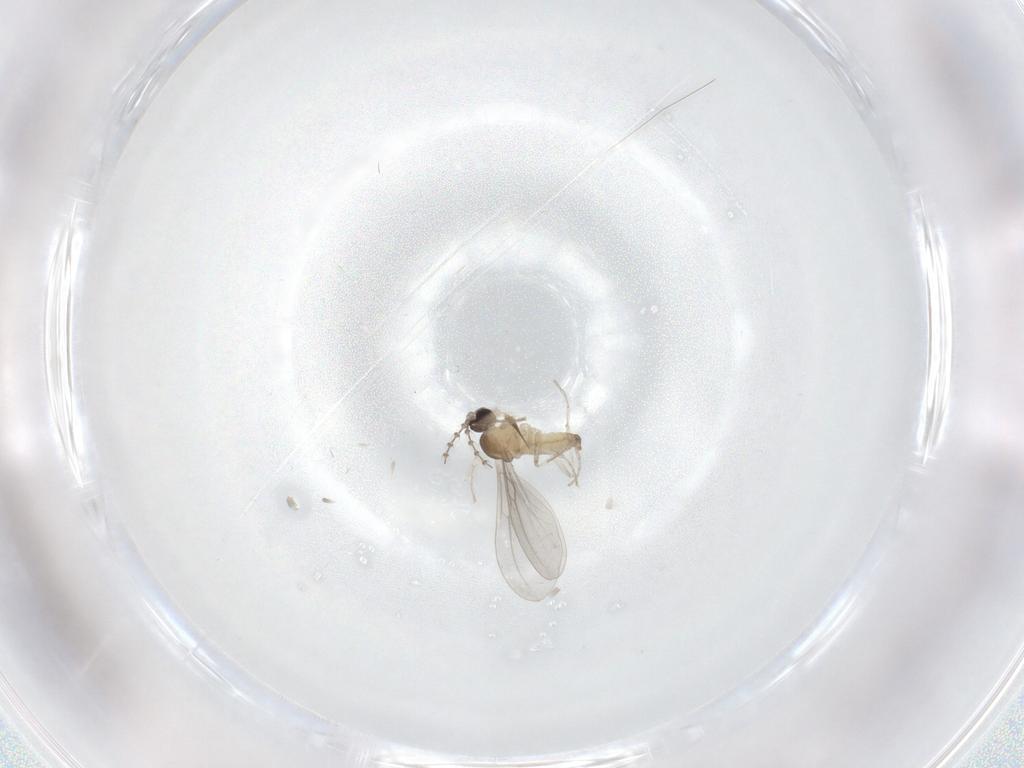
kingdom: Animalia
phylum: Arthropoda
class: Insecta
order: Diptera
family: Cecidomyiidae
